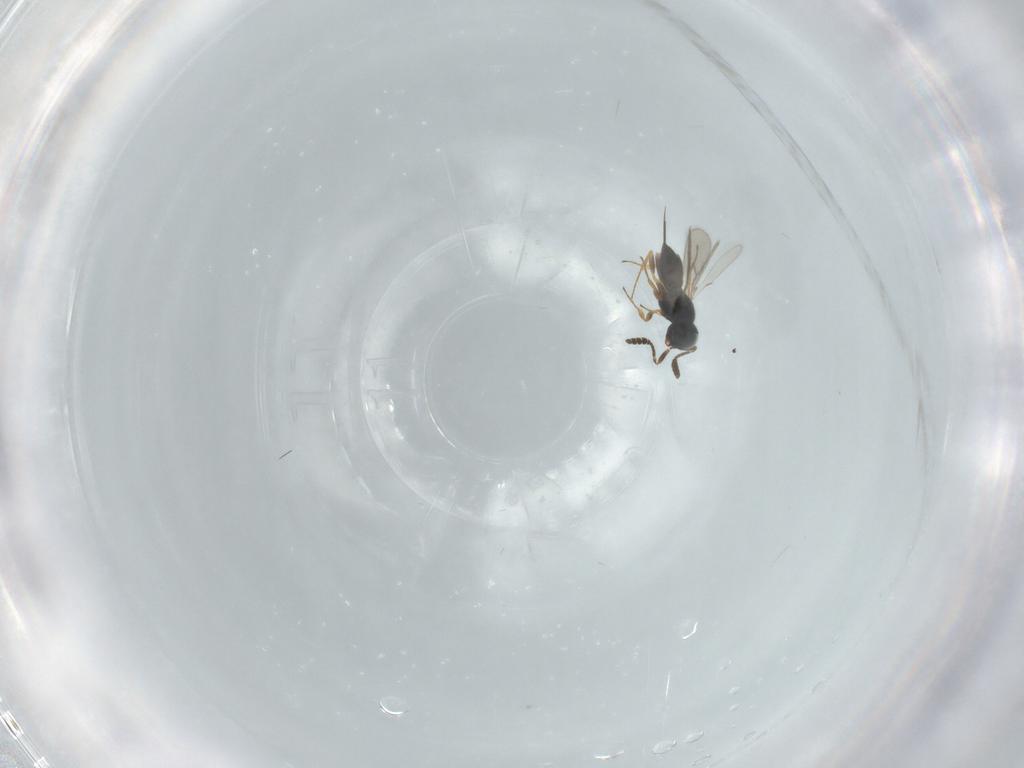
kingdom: Animalia
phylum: Arthropoda
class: Insecta
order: Hymenoptera
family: Scelionidae
